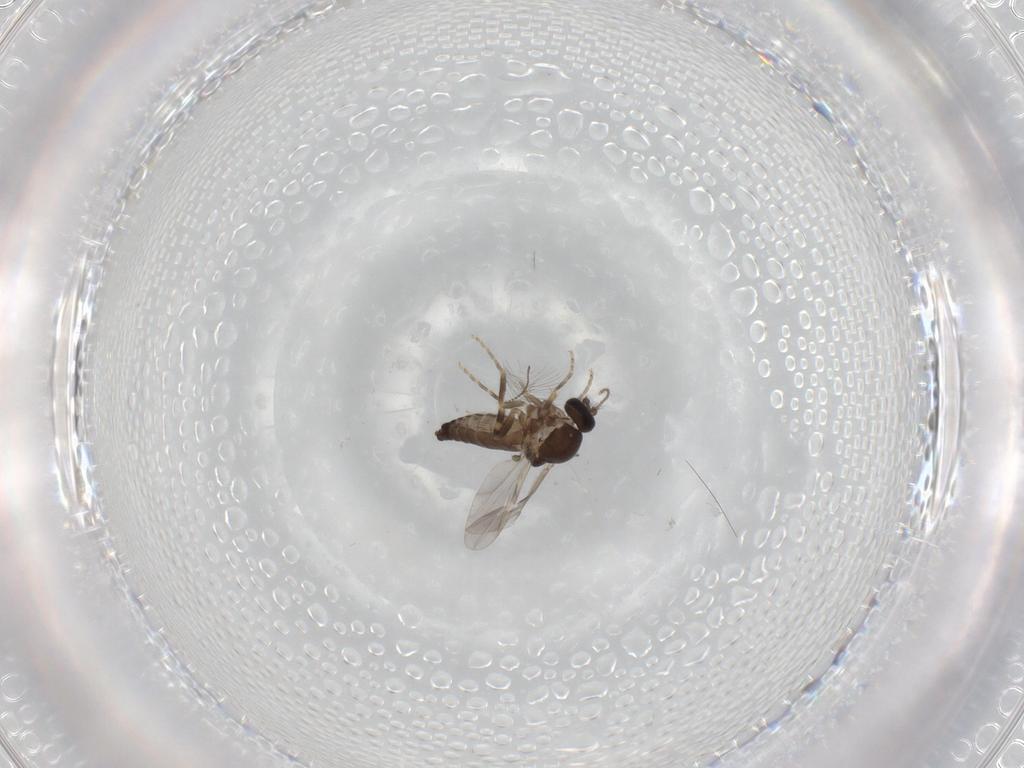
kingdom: Animalia
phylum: Arthropoda
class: Insecta
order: Diptera
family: Ceratopogonidae
